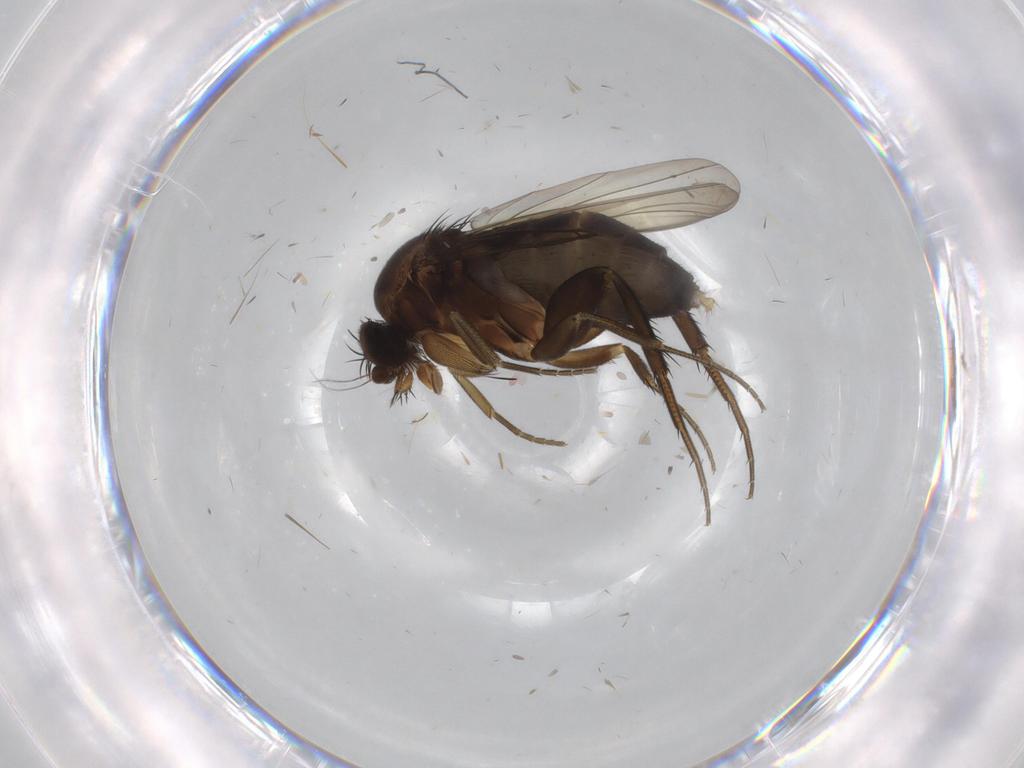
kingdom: Animalia
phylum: Arthropoda
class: Insecta
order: Diptera
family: Phoridae
